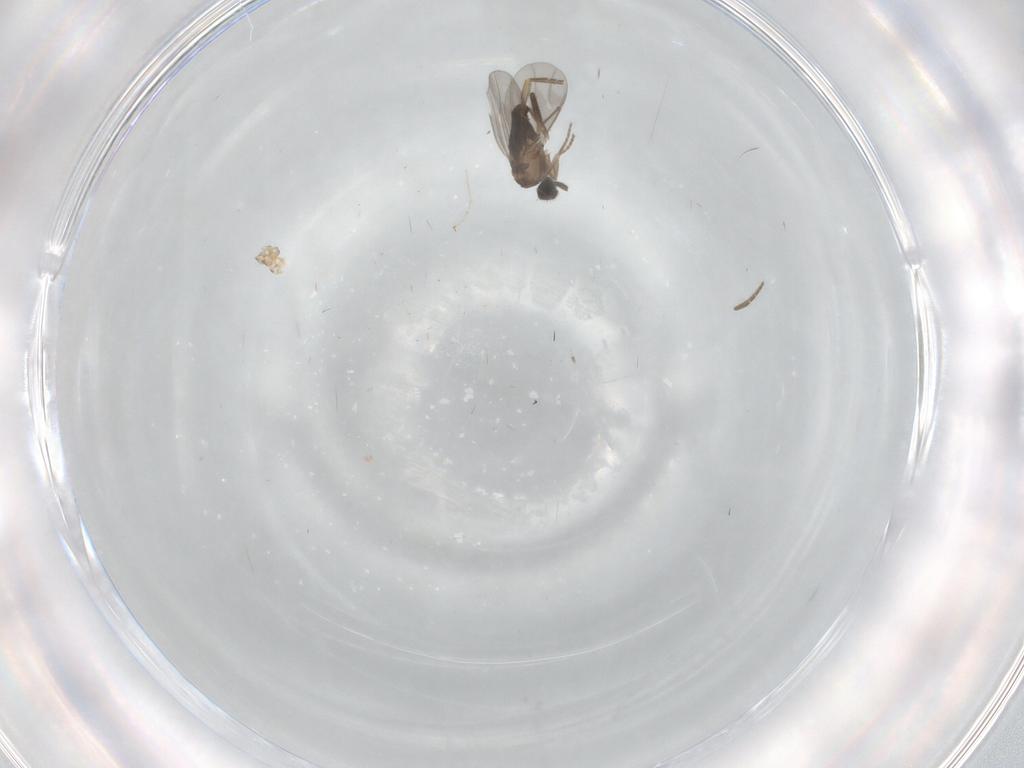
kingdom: Animalia
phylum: Arthropoda
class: Insecta
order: Diptera
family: Psychodidae
